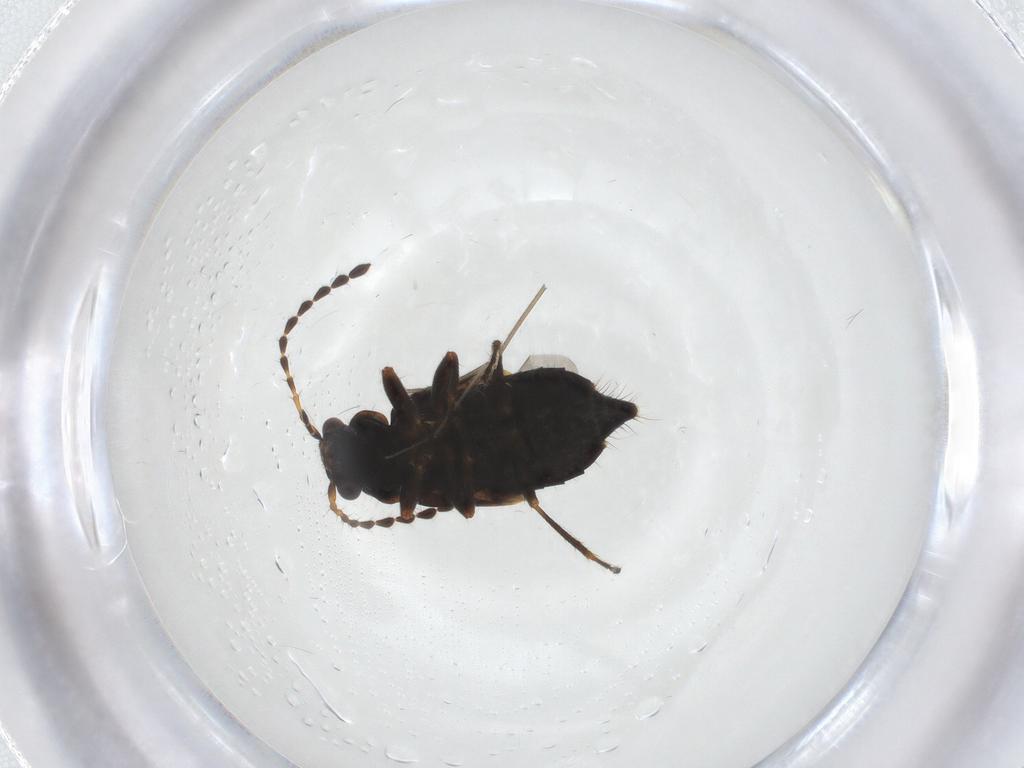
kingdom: Animalia
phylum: Arthropoda
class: Insecta
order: Coleoptera
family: Staphylinidae
